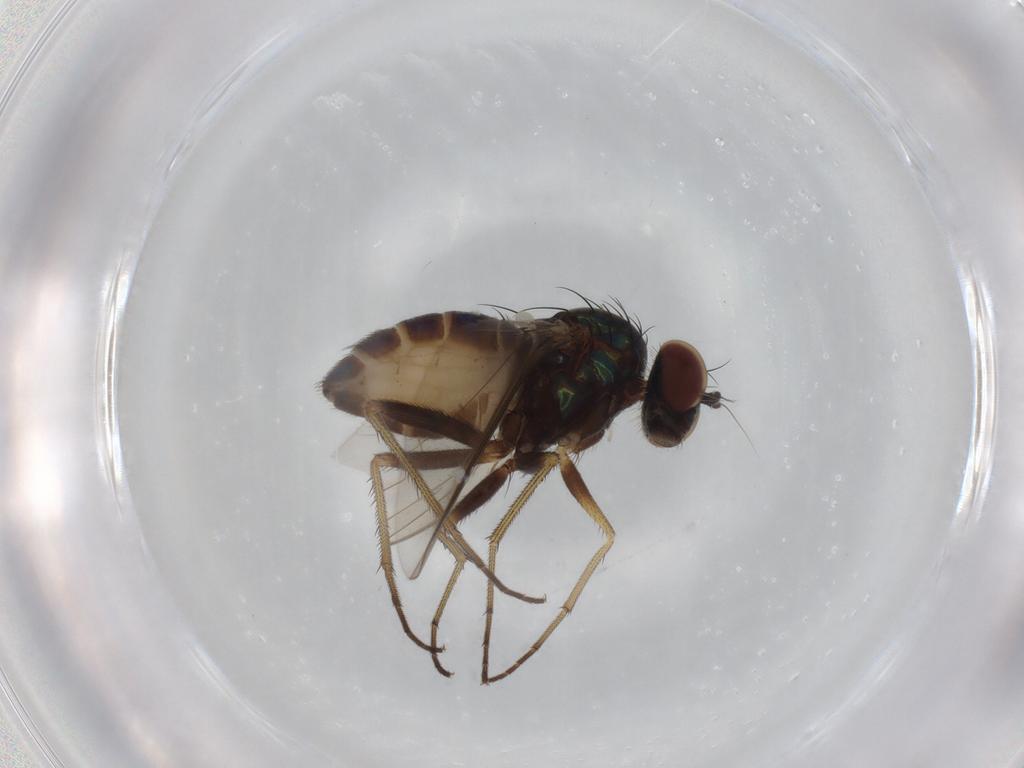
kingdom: Animalia
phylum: Arthropoda
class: Insecta
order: Diptera
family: Dolichopodidae
